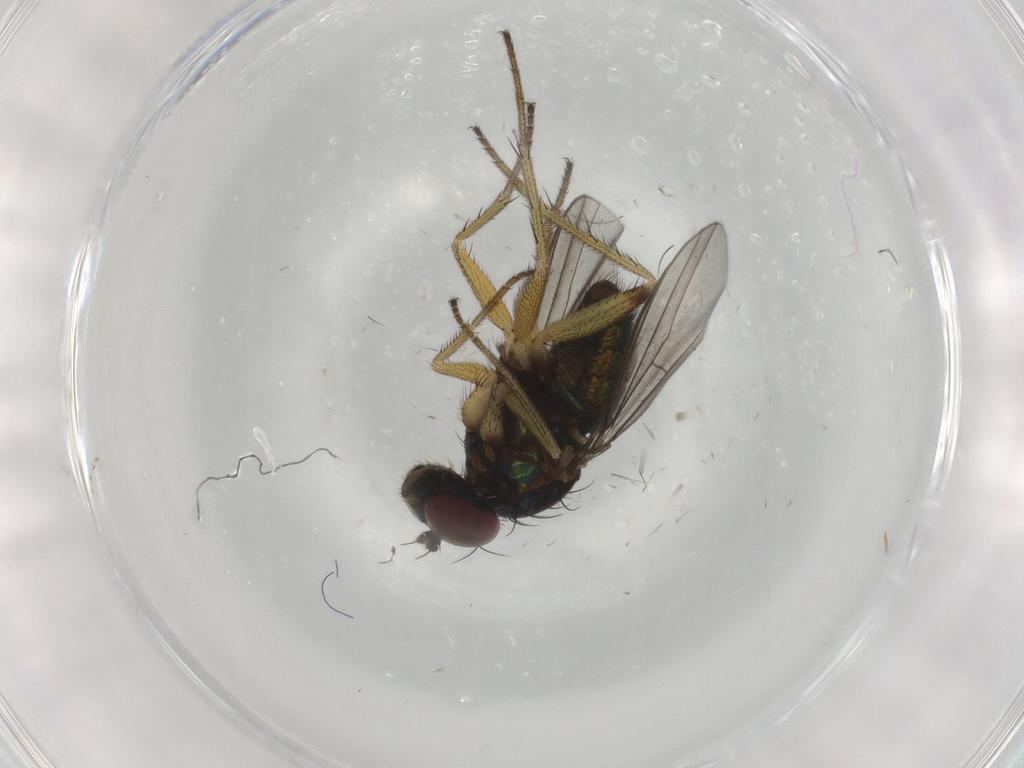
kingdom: Animalia
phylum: Arthropoda
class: Insecta
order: Diptera
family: Dolichopodidae
